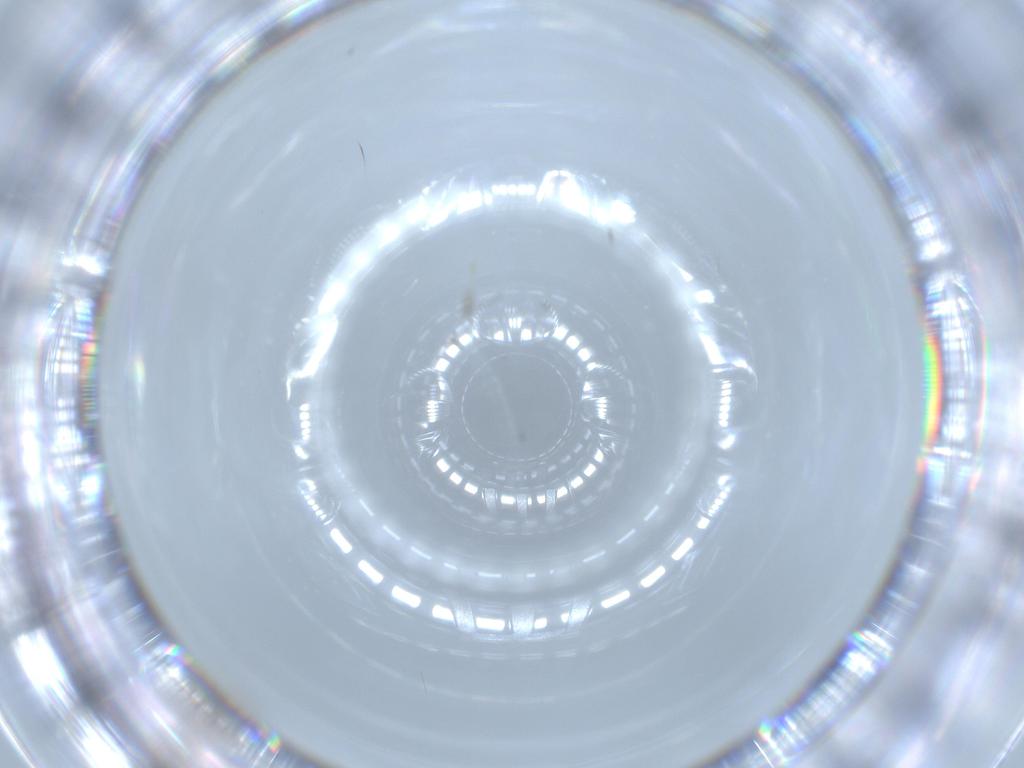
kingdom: Animalia
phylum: Arthropoda
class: Insecta
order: Diptera
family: Cecidomyiidae
